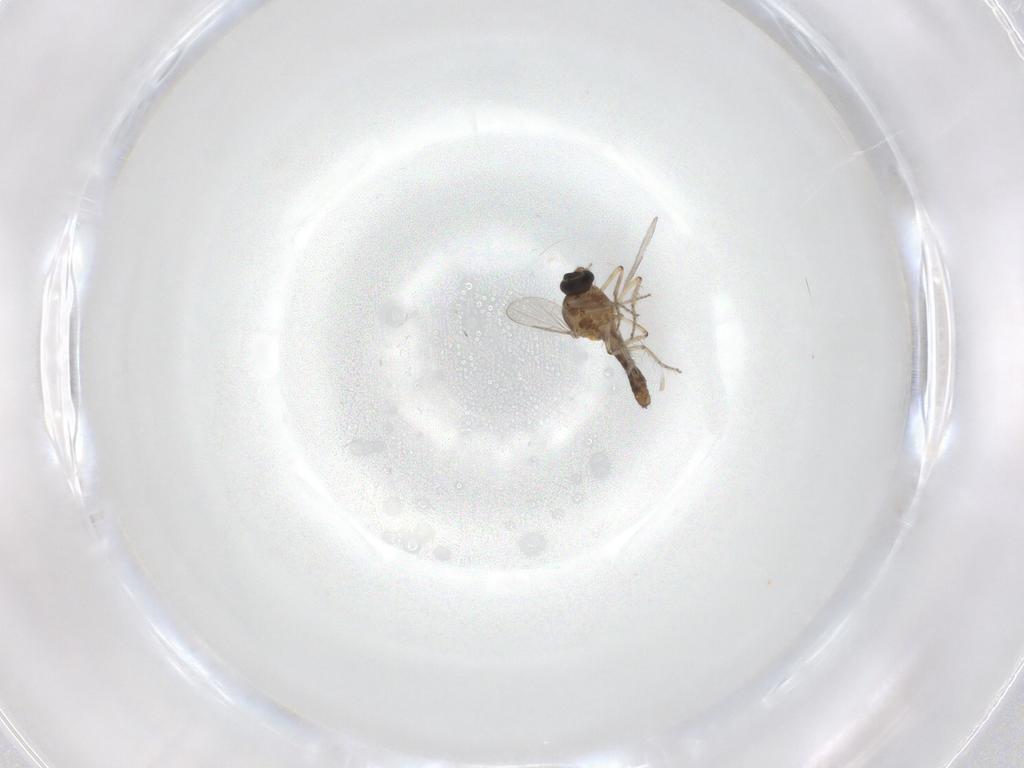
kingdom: Animalia
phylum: Arthropoda
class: Insecta
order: Diptera
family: Ceratopogonidae
